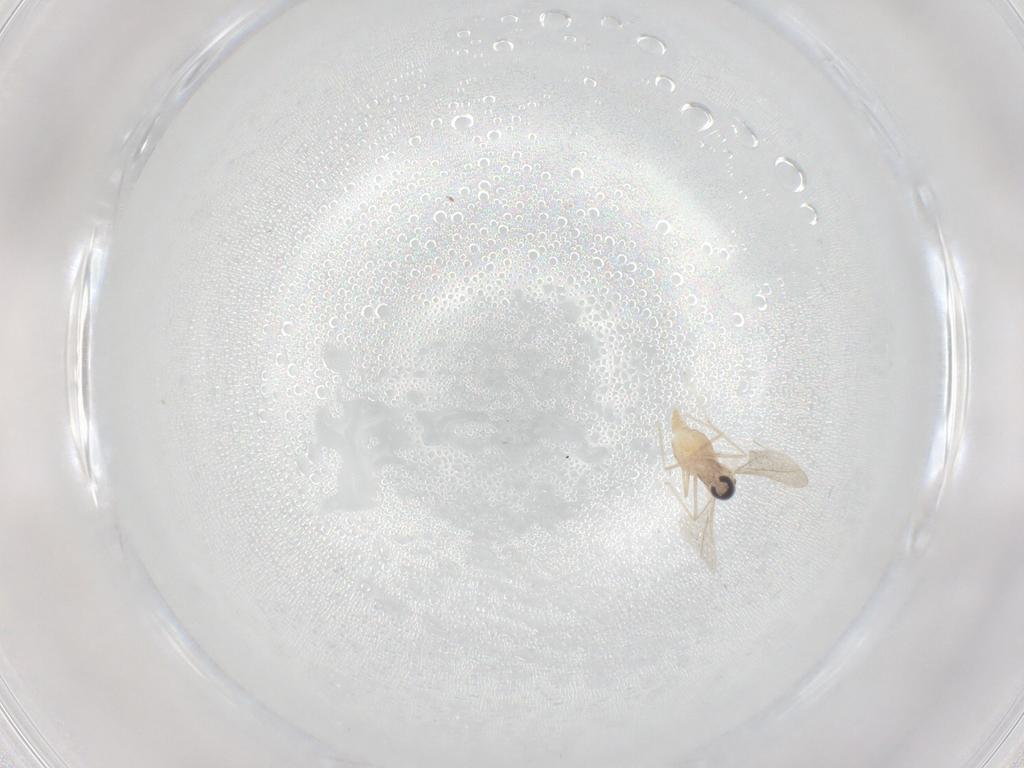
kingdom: Animalia
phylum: Arthropoda
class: Insecta
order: Diptera
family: Cecidomyiidae
